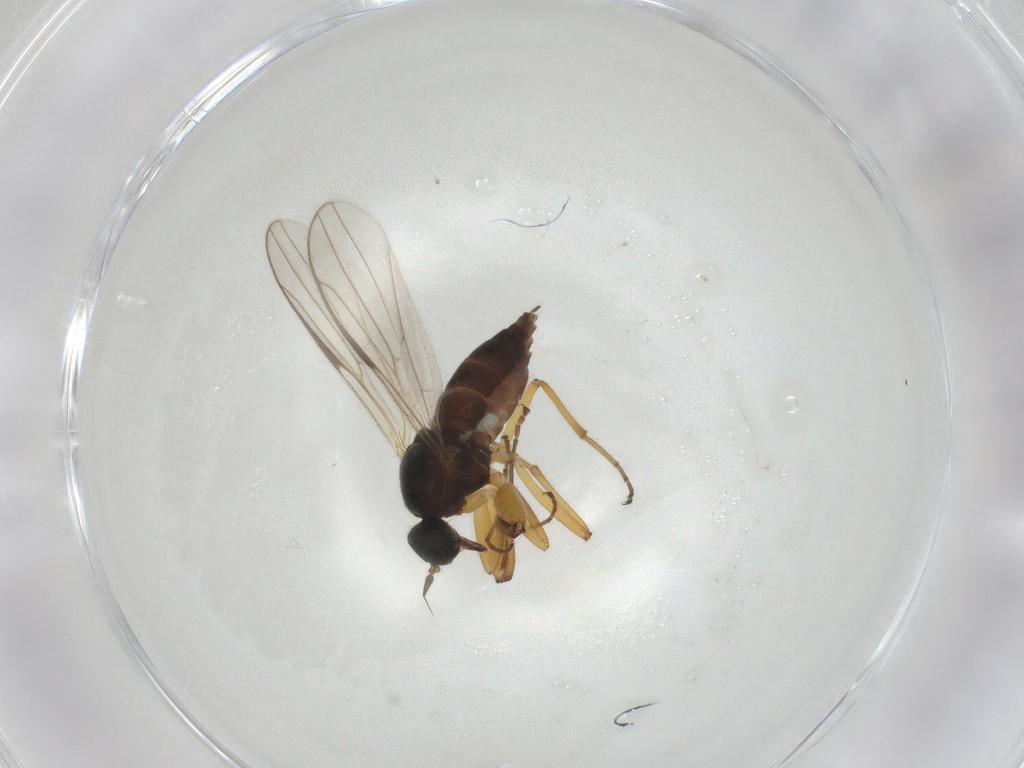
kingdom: Animalia
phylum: Arthropoda
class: Insecta
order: Diptera
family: Hybotidae
